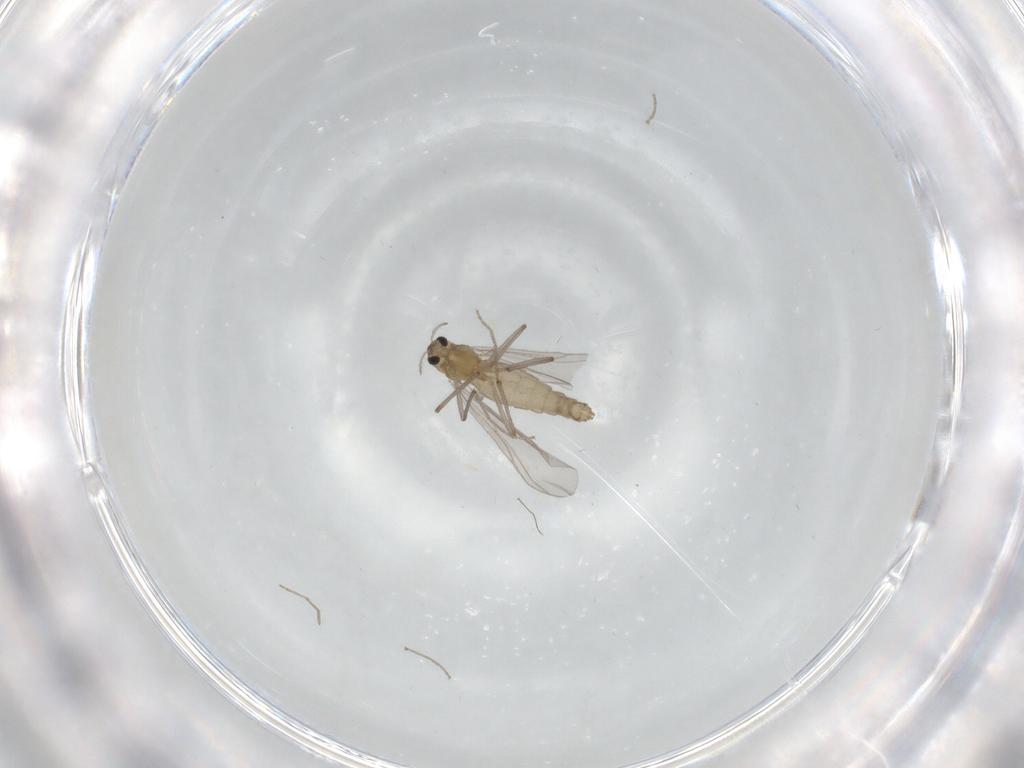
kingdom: Animalia
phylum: Arthropoda
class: Insecta
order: Diptera
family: Chironomidae
